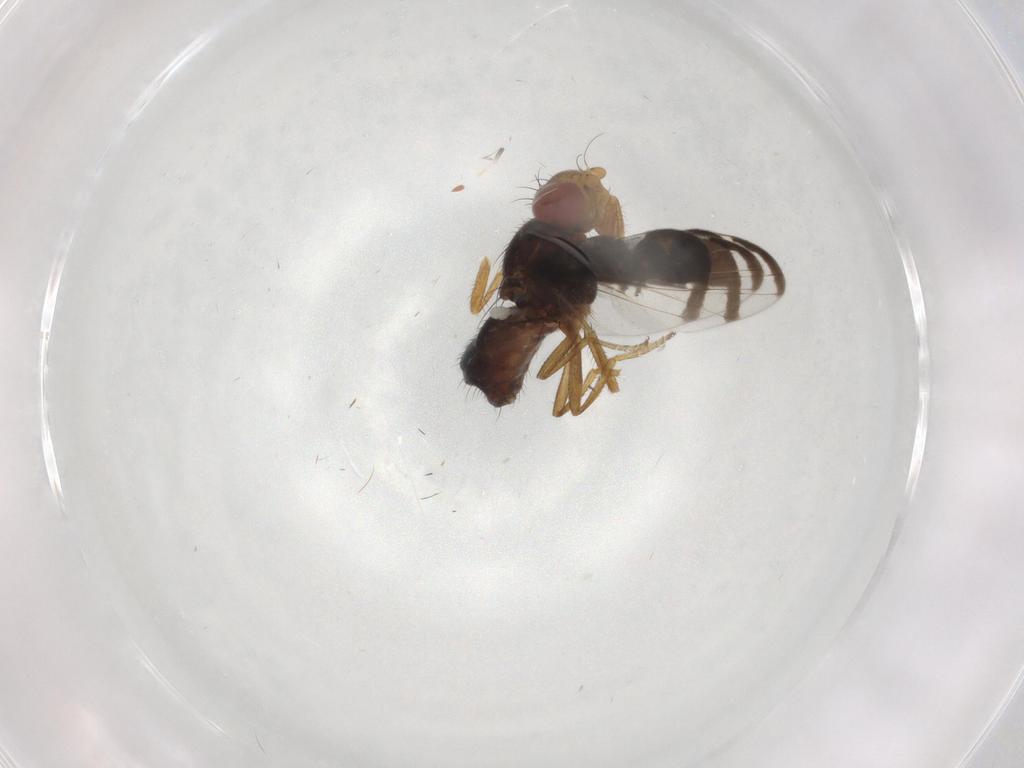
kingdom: Animalia
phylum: Arthropoda
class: Insecta
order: Diptera
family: Ulidiidae
